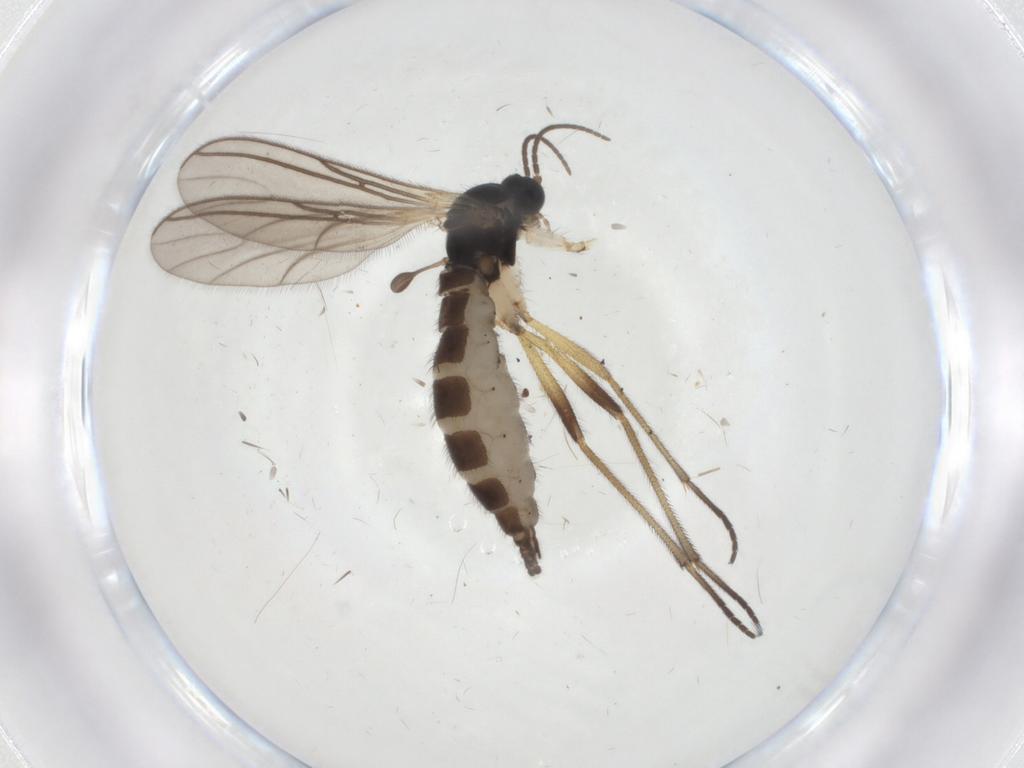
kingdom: Animalia
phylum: Arthropoda
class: Insecta
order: Diptera
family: Sciaridae
